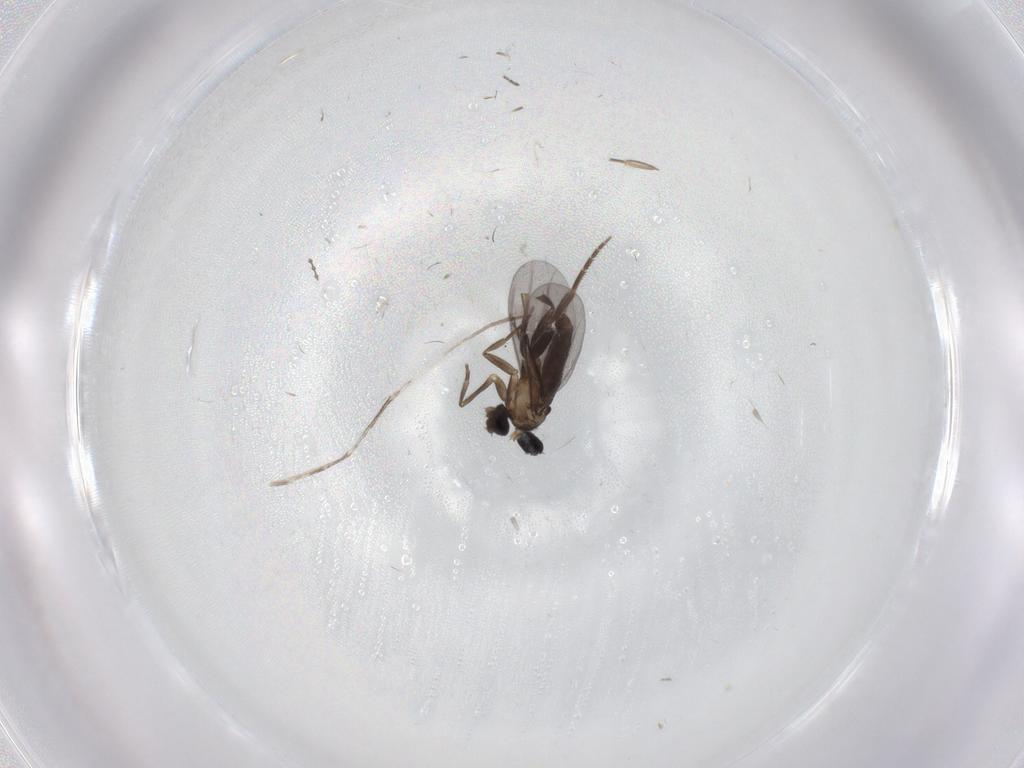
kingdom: Animalia
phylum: Arthropoda
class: Insecta
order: Diptera
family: Phoridae
